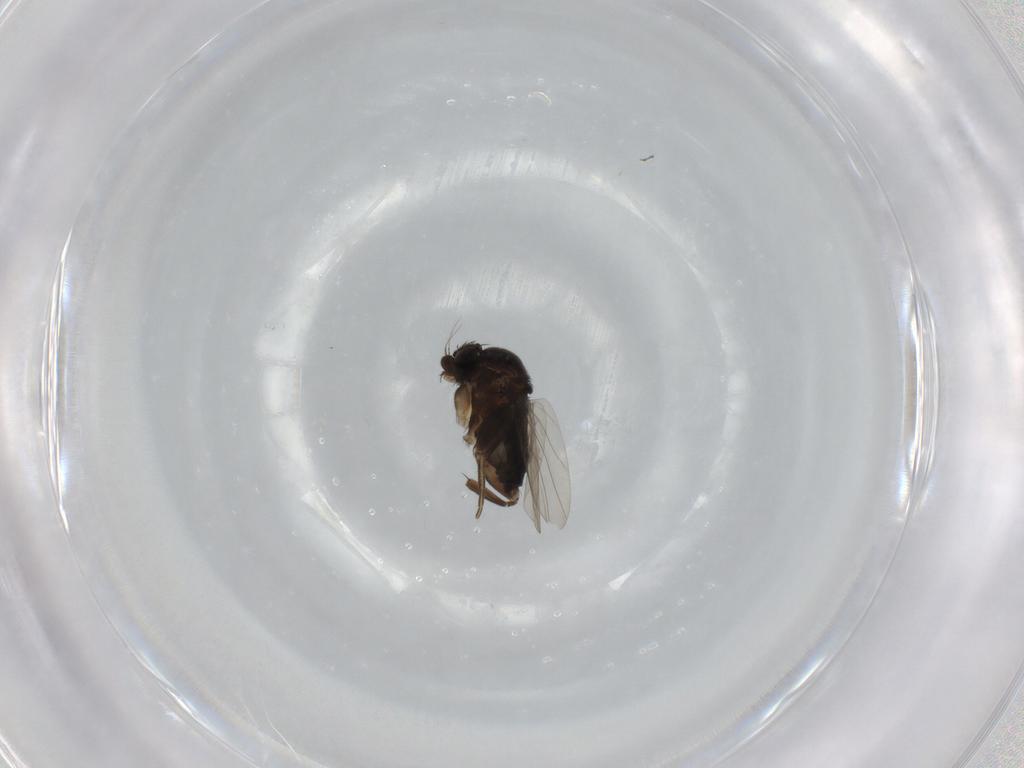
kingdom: Animalia
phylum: Arthropoda
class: Insecta
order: Diptera
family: Phoridae
